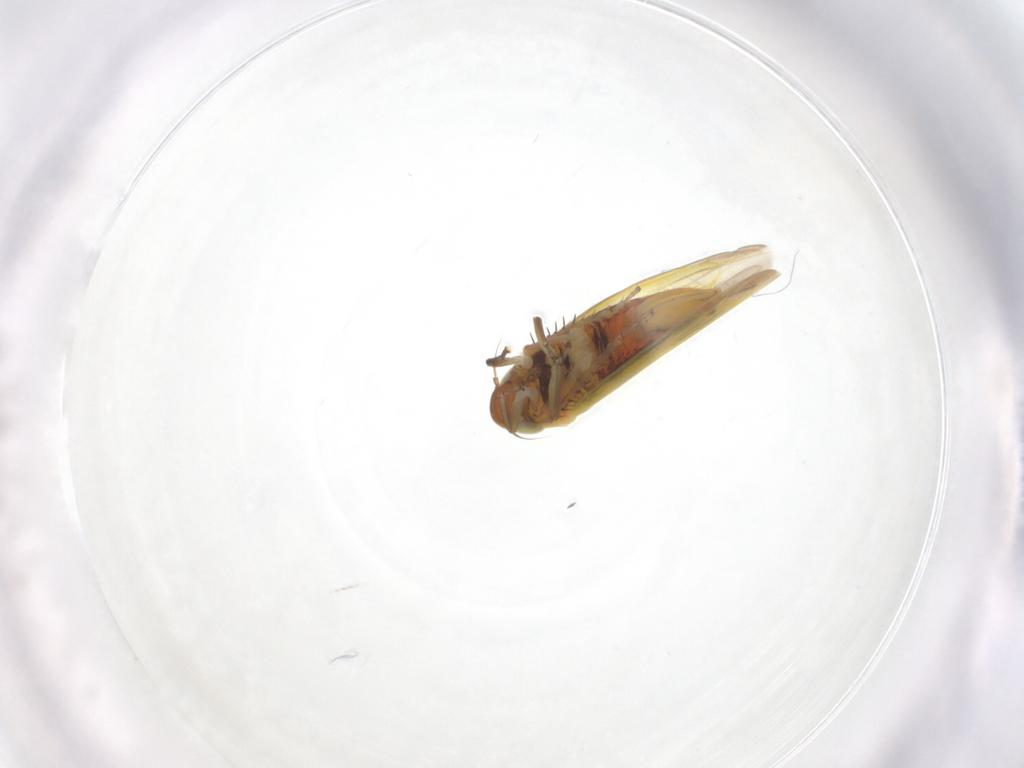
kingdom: Animalia
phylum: Arthropoda
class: Insecta
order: Hemiptera
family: Cicadellidae
